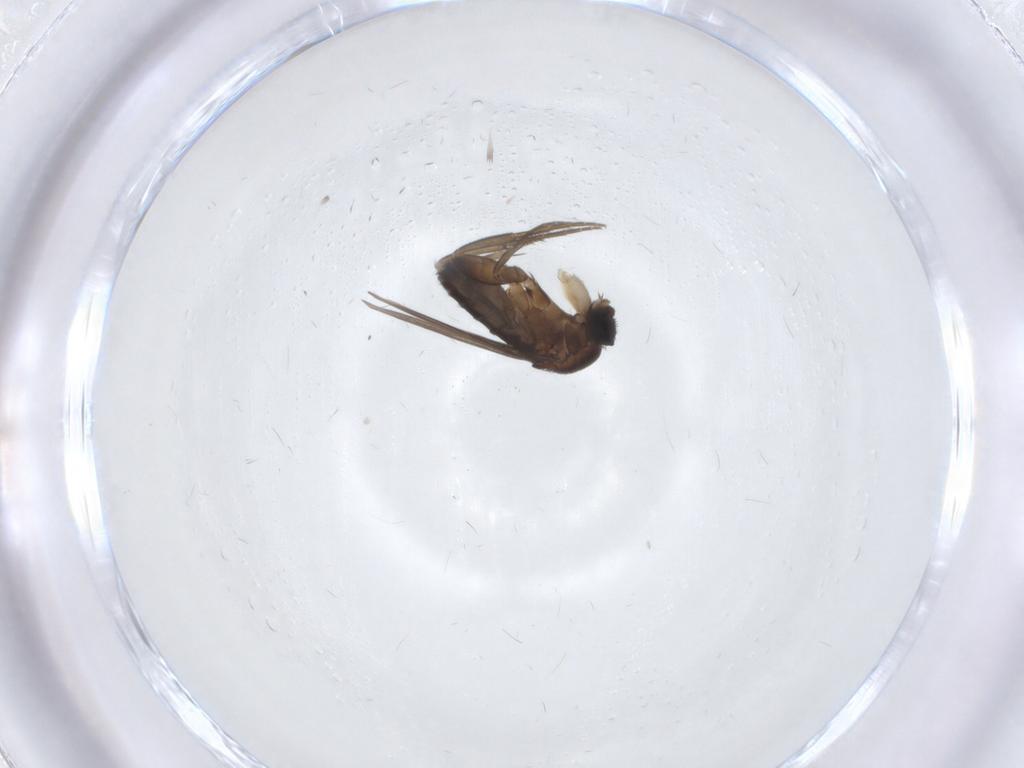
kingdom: Animalia
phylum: Arthropoda
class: Insecta
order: Diptera
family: Phoridae
